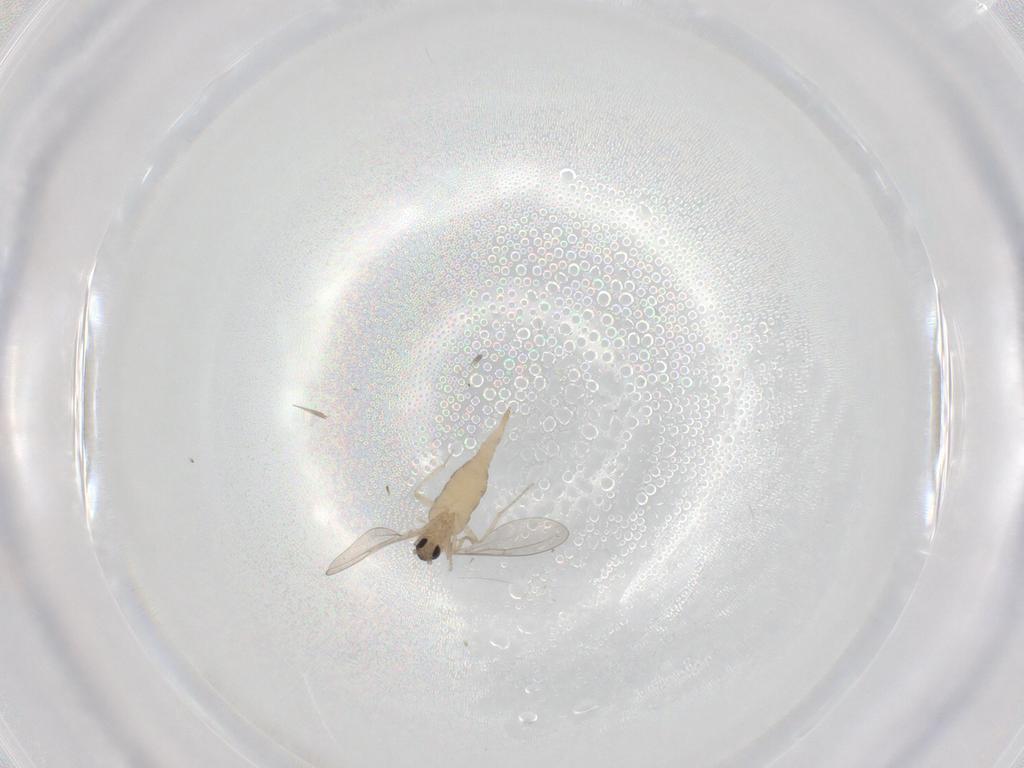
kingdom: Animalia
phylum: Arthropoda
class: Insecta
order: Diptera
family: Cecidomyiidae
